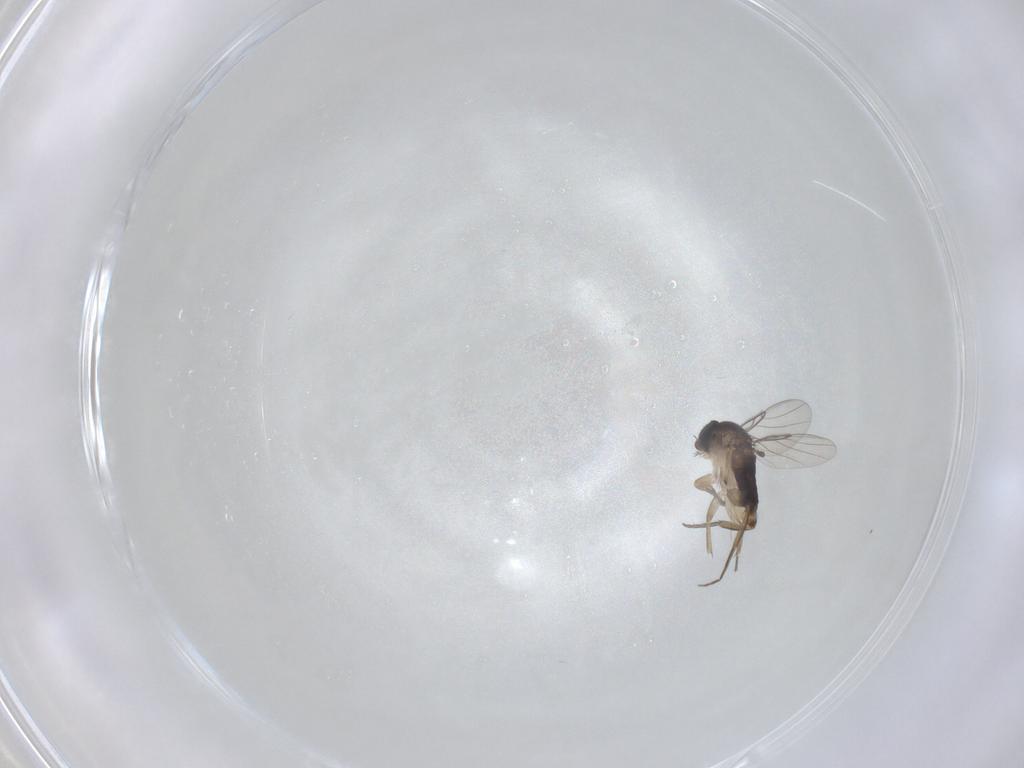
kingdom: Animalia
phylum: Arthropoda
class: Insecta
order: Diptera
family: Phoridae
